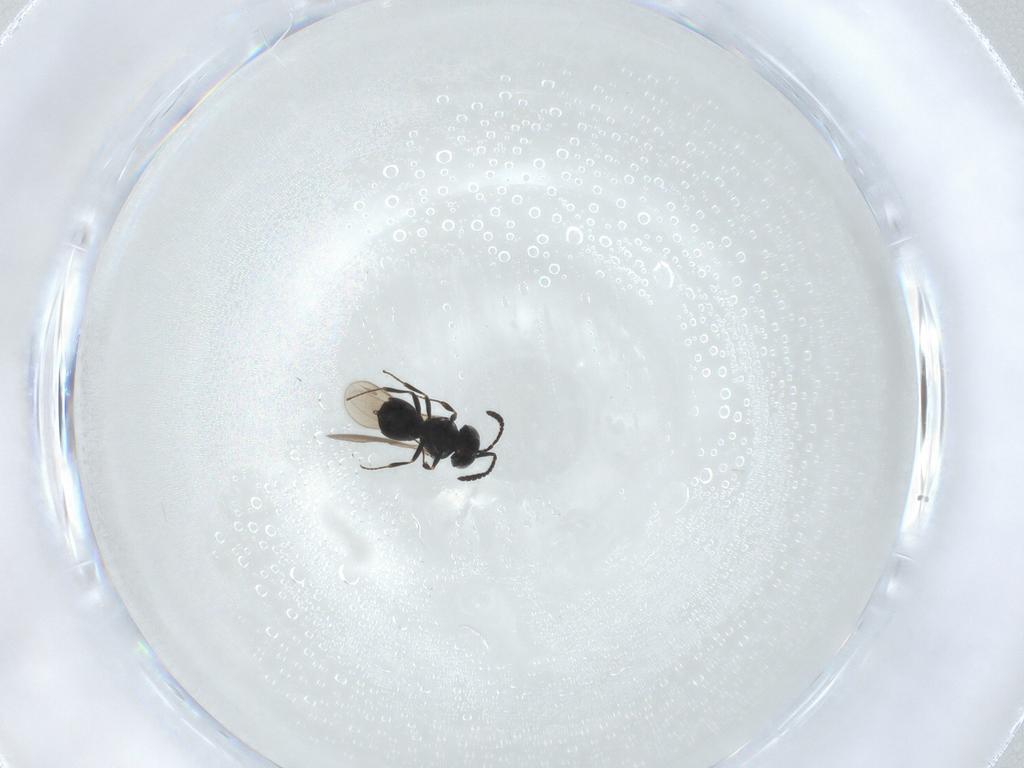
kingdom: Animalia
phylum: Arthropoda
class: Insecta
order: Hymenoptera
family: Scelionidae
